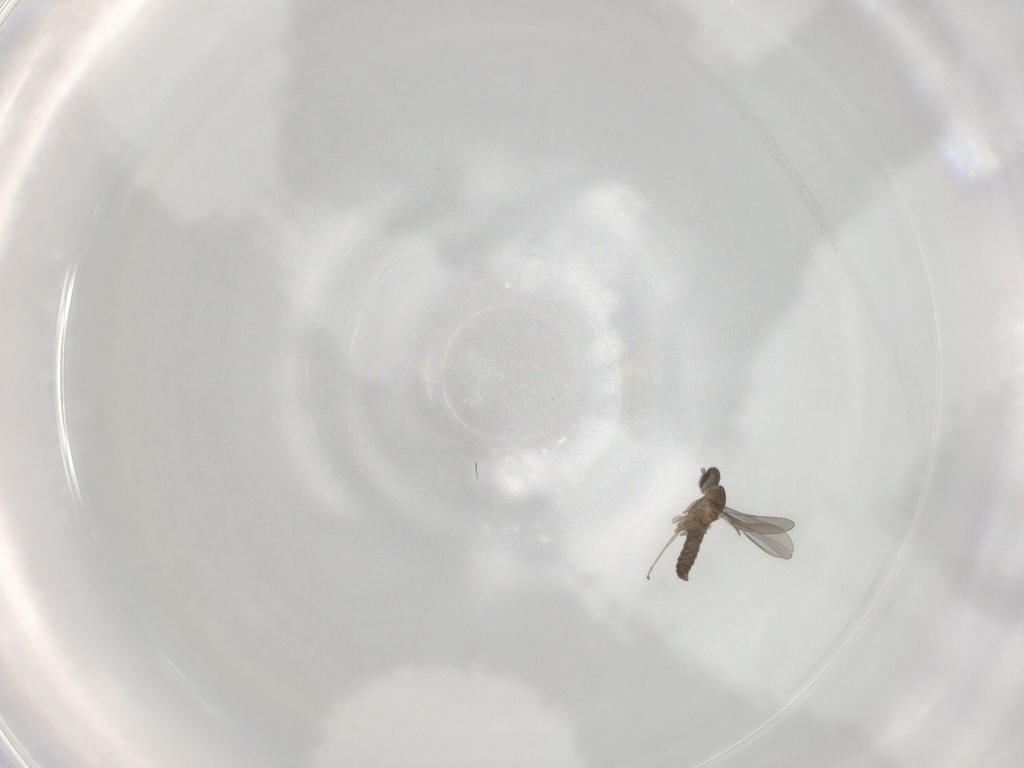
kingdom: Animalia
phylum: Arthropoda
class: Insecta
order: Diptera
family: Cecidomyiidae
